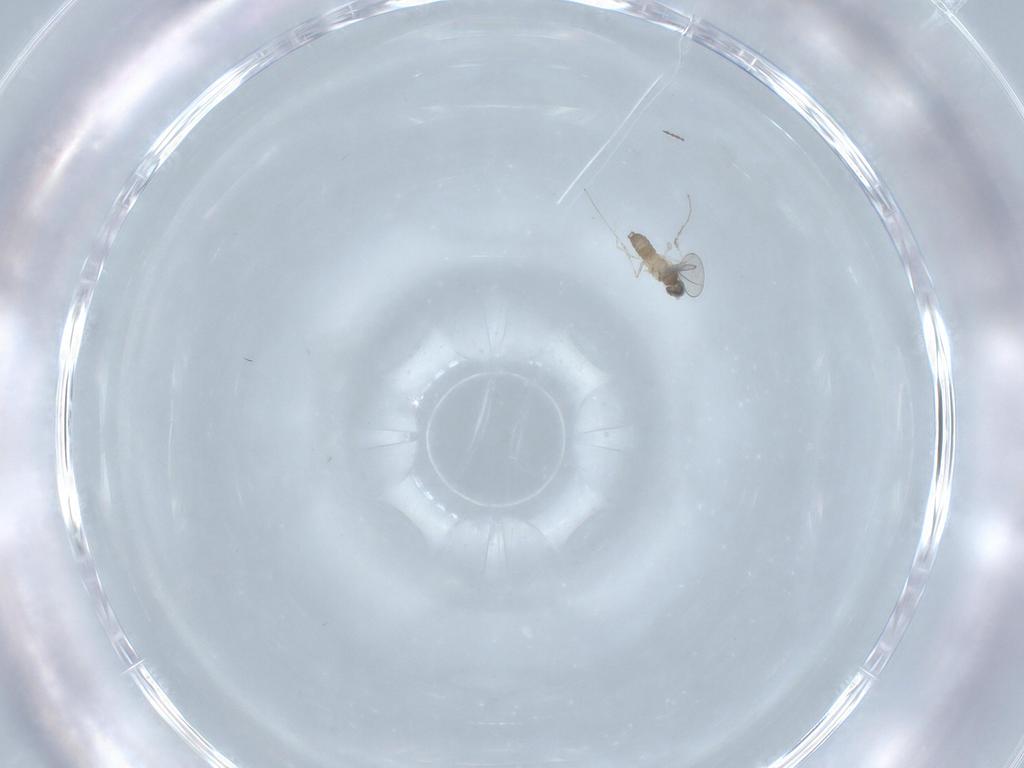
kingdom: Animalia
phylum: Arthropoda
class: Insecta
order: Diptera
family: Cecidomyiidae
